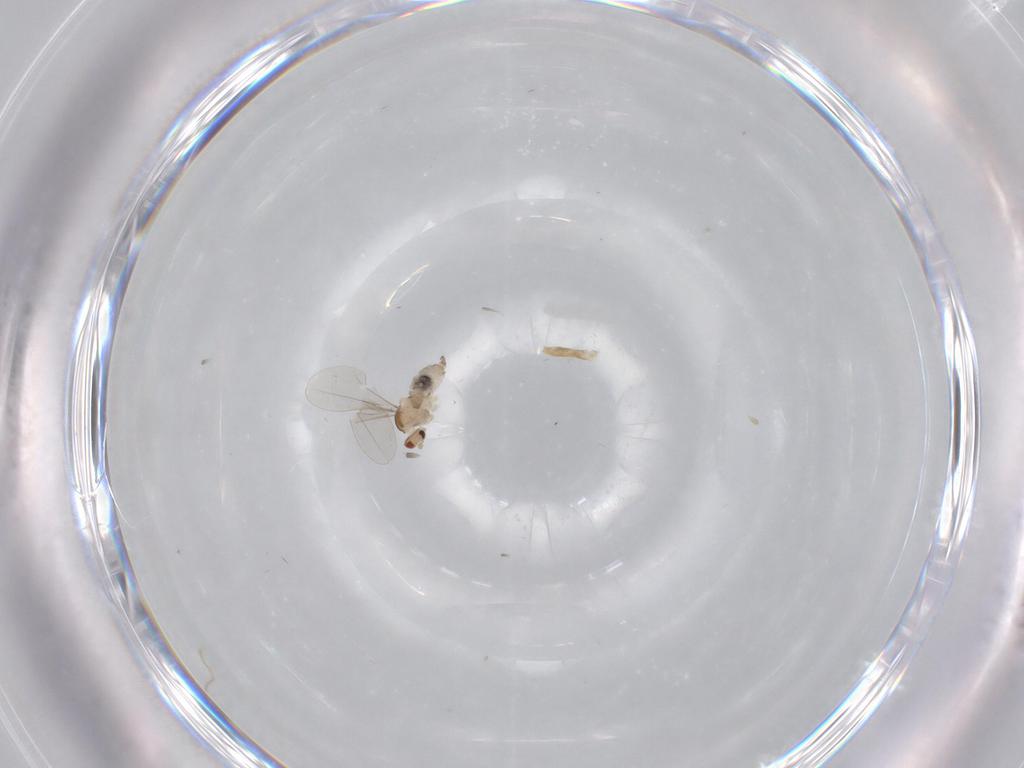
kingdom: Animalia
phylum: Arthropoda
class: Insecta
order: Diptera
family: Cecidomyiidae
